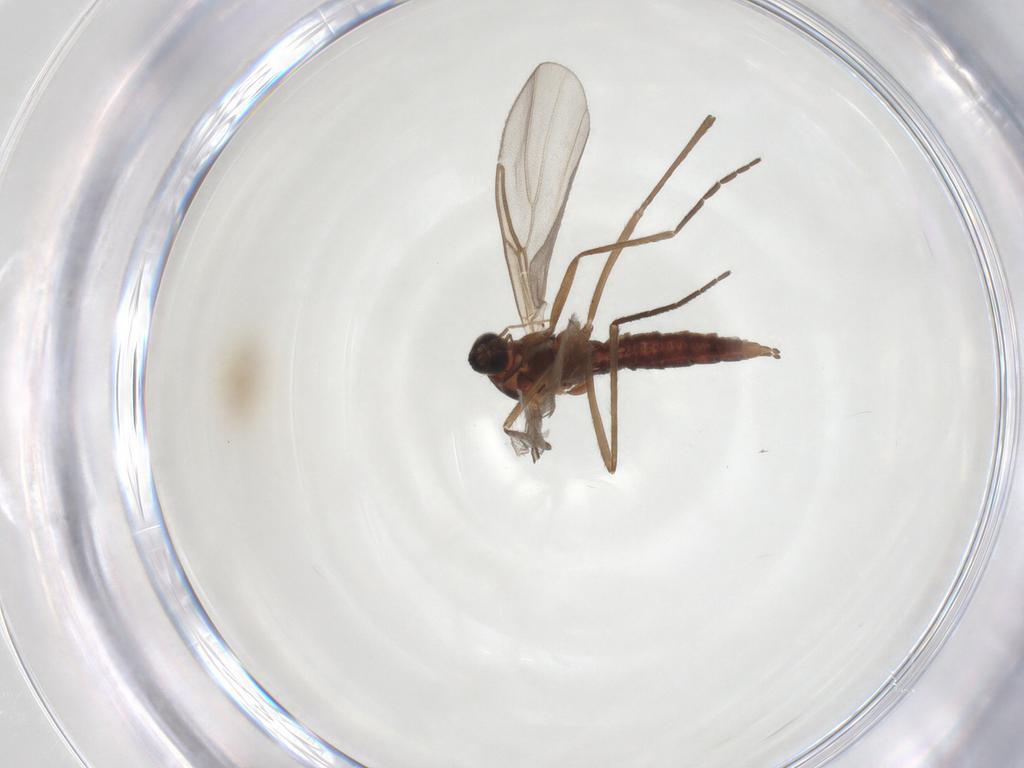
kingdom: Animalia
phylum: Arthropoda
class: Insecta
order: Diptera
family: Cecidomyiidae
